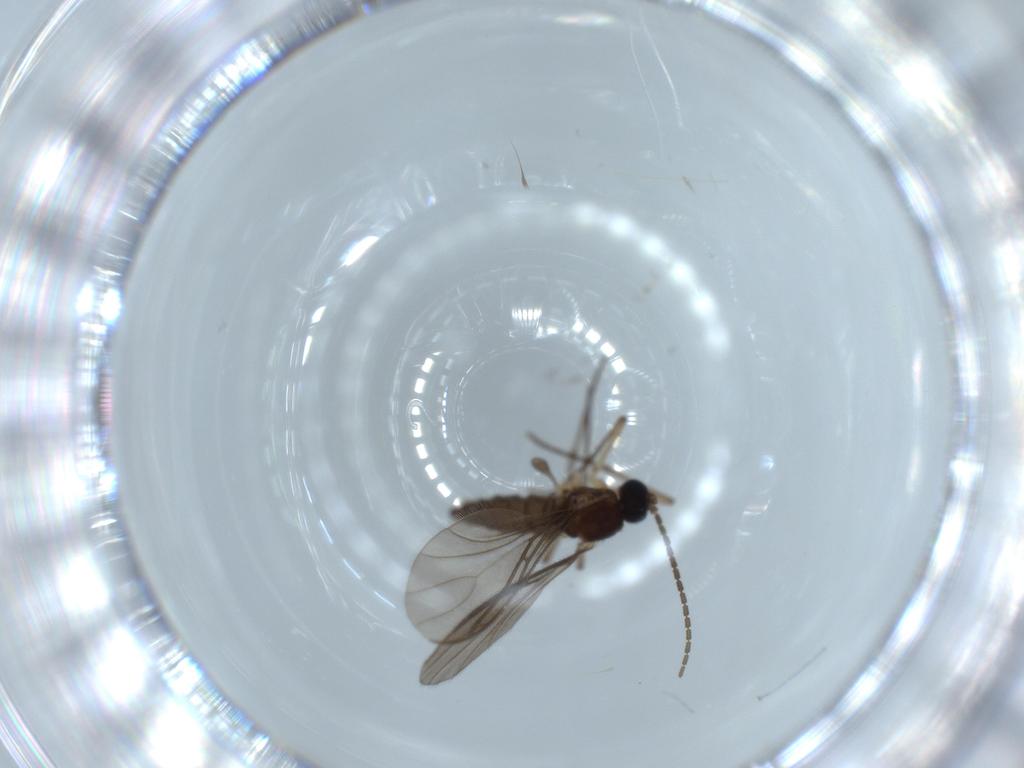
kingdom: Animalia
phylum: Arthropoda
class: Insecta
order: Diptera
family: Sciaridae
